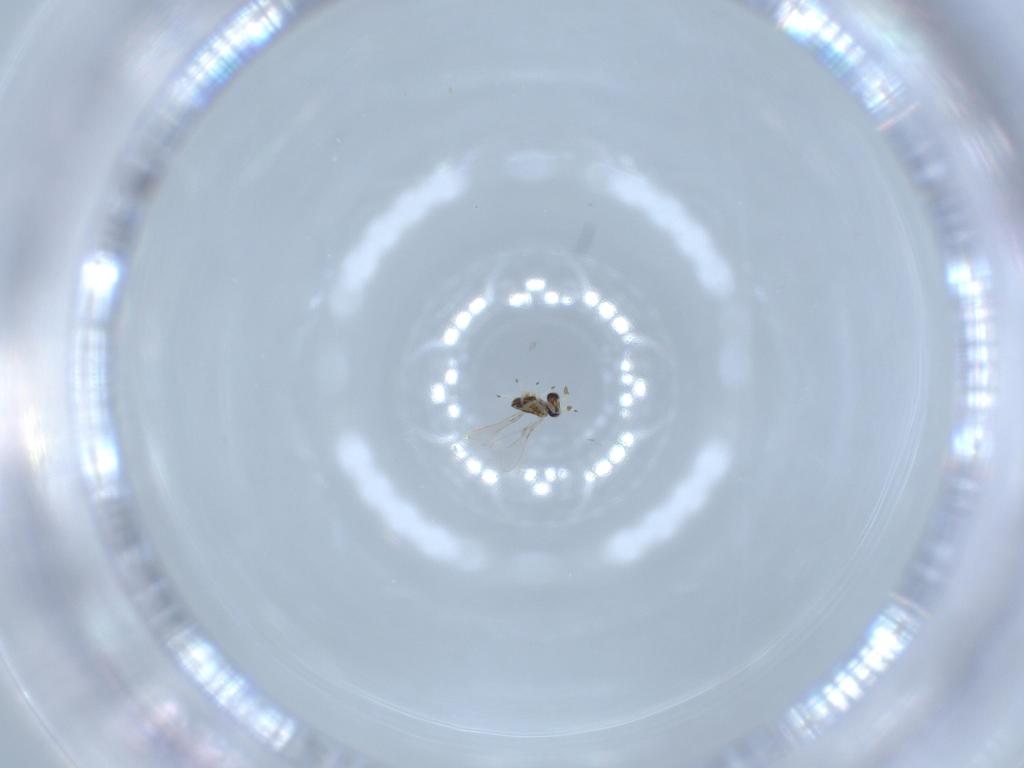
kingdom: Animalia
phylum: Arthropoda
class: Insecta
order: Hymenoptera
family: Mymaridae
